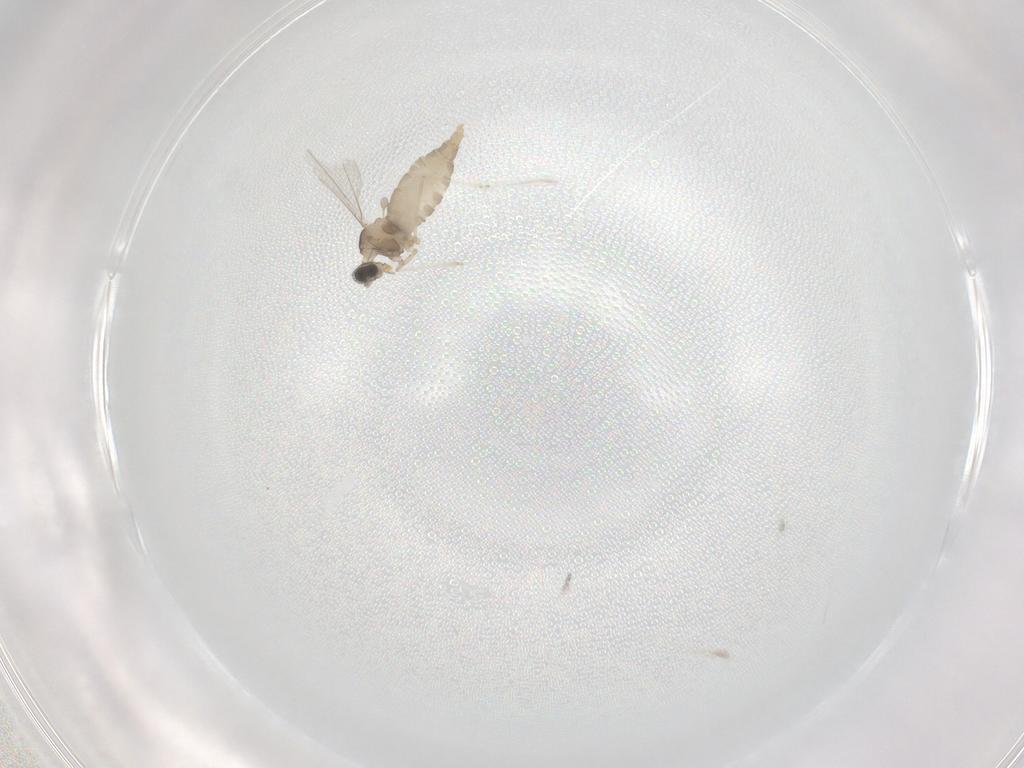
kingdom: Animalia
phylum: Arthropoda
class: Insecta
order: Diptera
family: Cecidomyiidae
